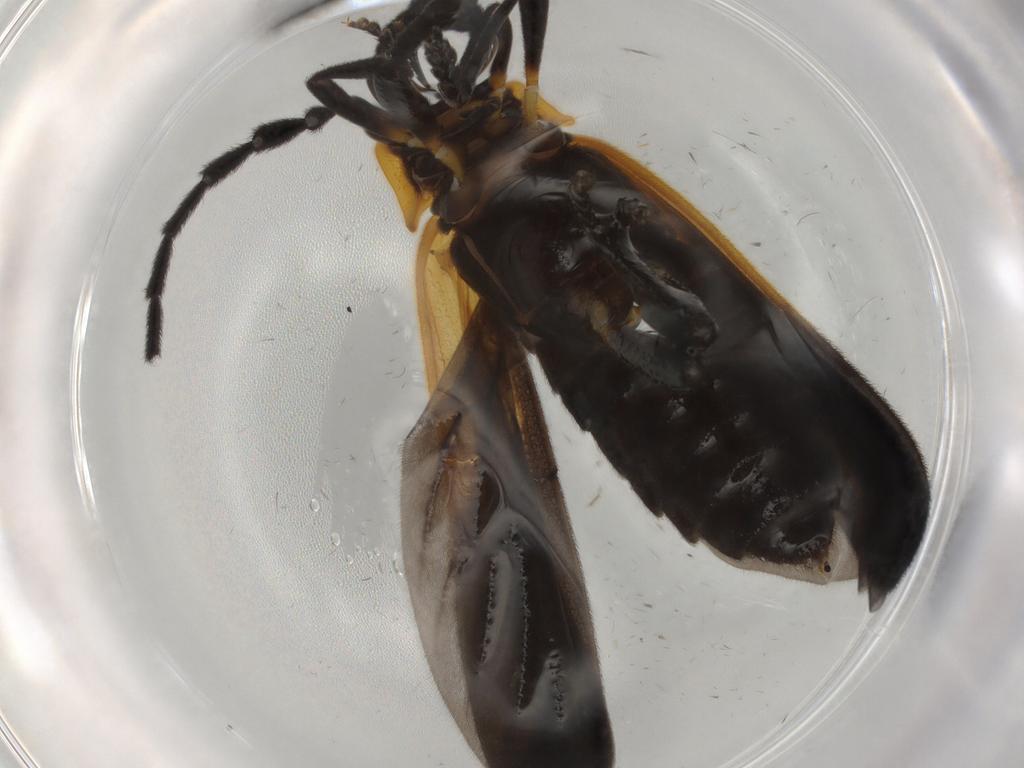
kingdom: Animalia
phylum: Arthropoda
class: Insecta
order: Coleoptera
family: Lycidae
